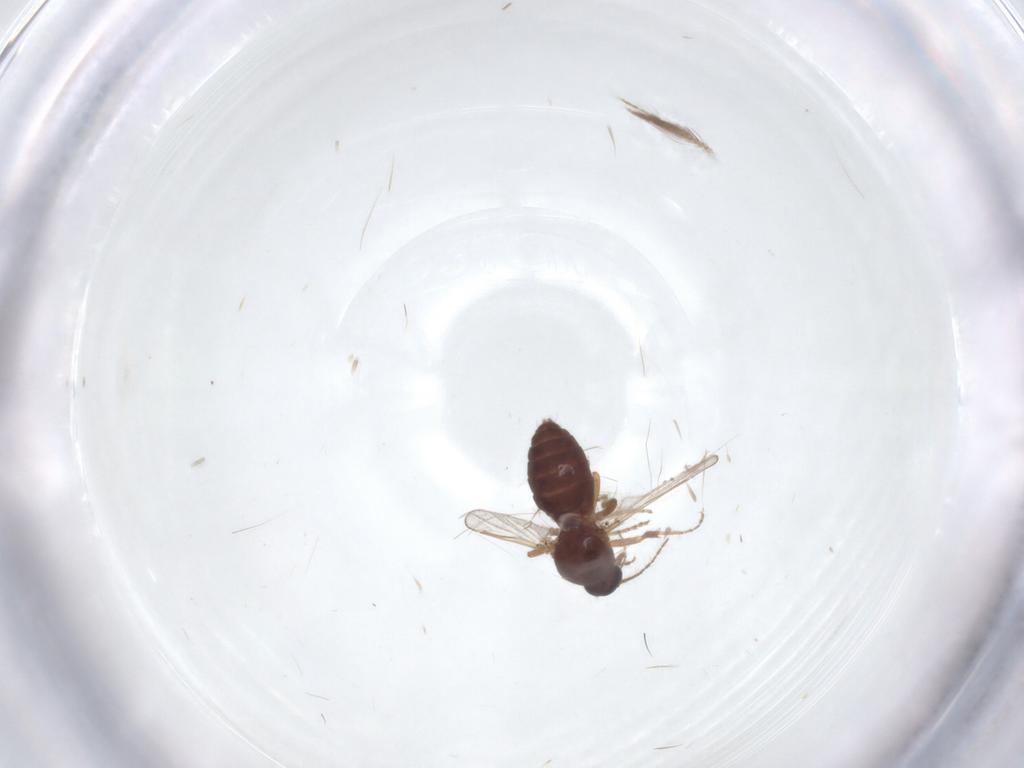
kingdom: Animalia
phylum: Arthropoda
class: Insecta
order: Diptera
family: Ceratopogonidae
